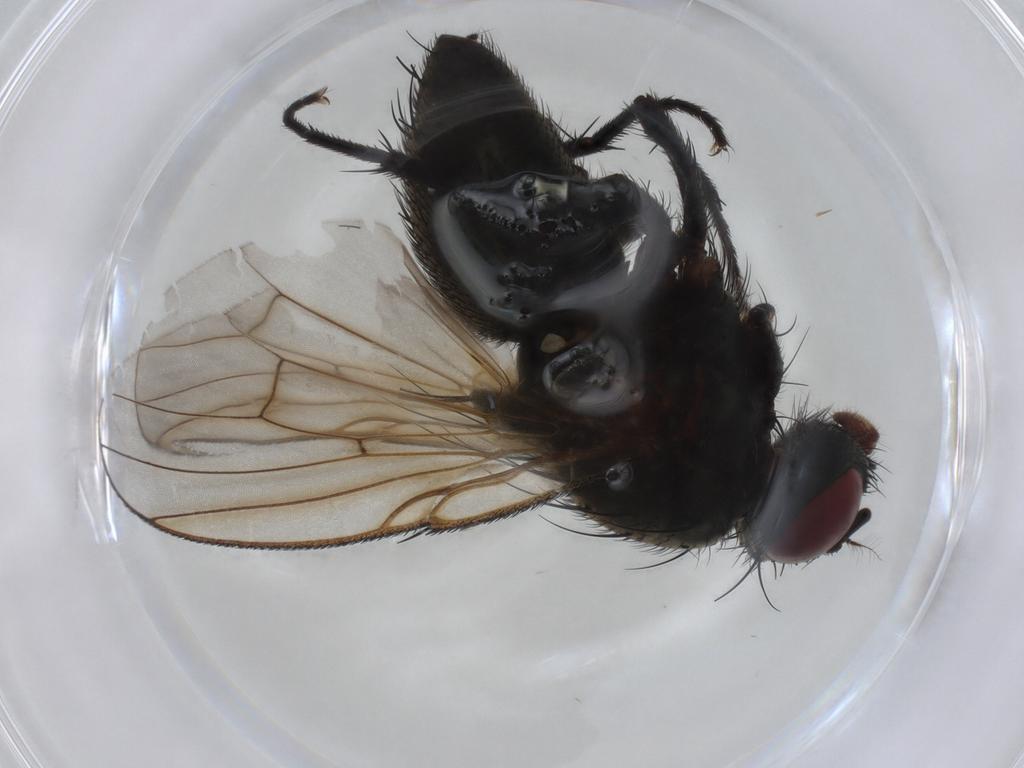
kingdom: Animalia
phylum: Arthropoda
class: Insecta
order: Diptera
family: Muscidae
